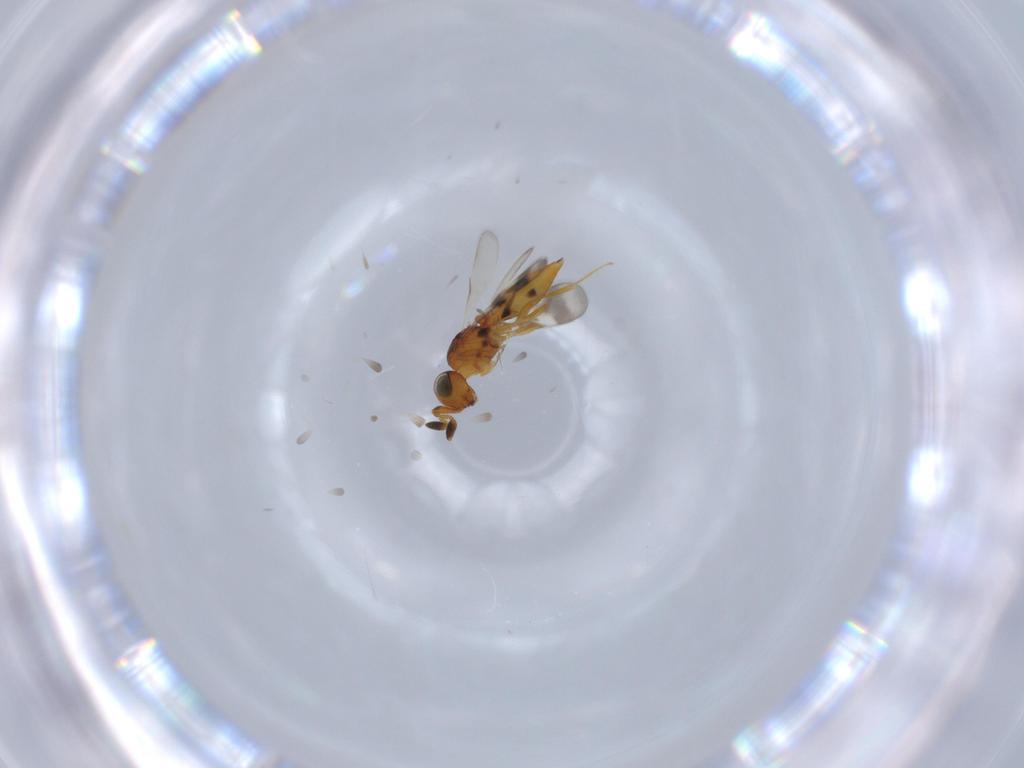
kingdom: Animalia
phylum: Arthropoda
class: Insecta
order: Hymenoptera
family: Scelionidae
